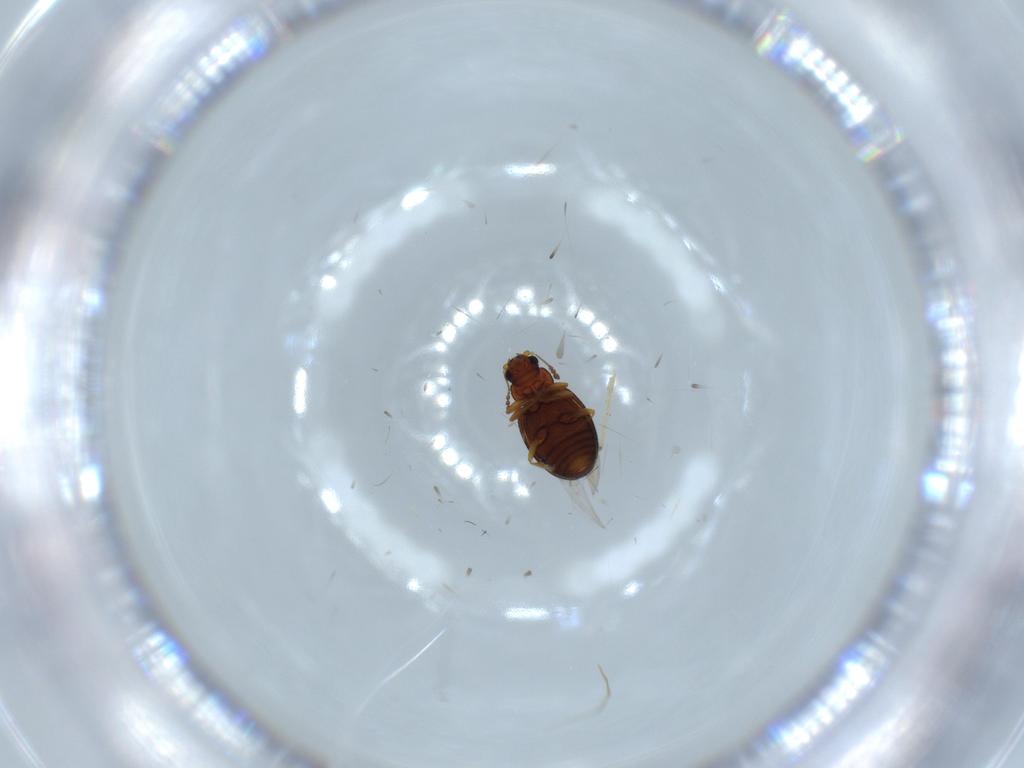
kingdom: Animalia
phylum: Arthropoda
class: Insecta
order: Coleoptera
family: Latridiidae
